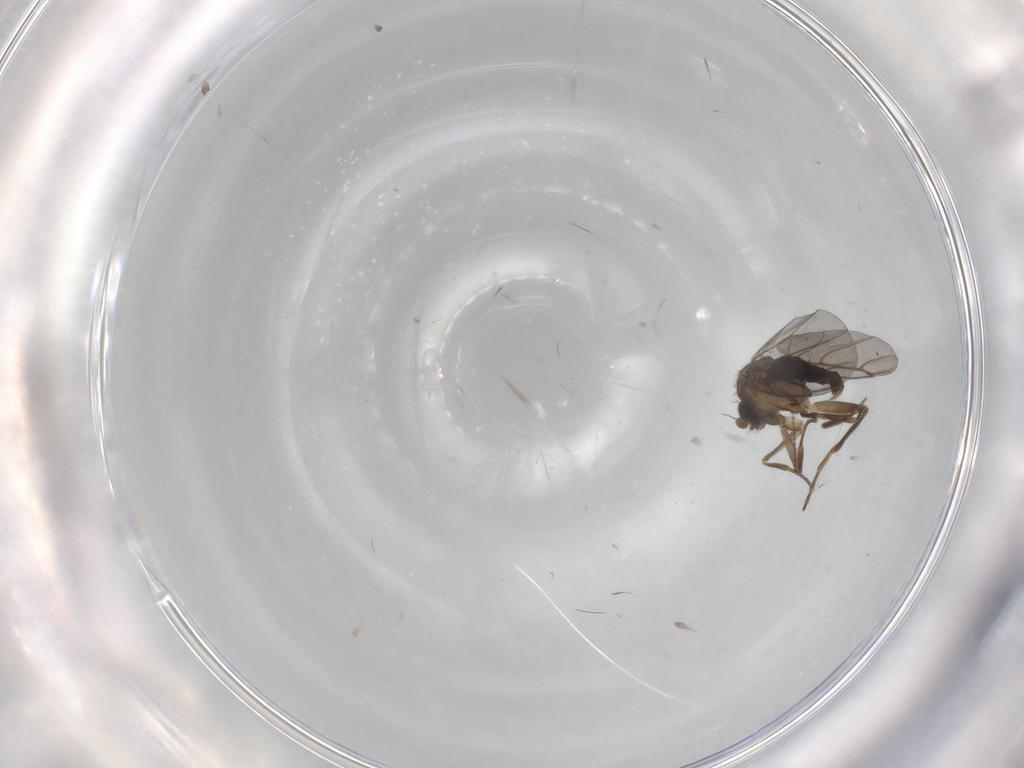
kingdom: Animalia
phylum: Arthropoda
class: Insecta
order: Diptera
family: Phoridae
